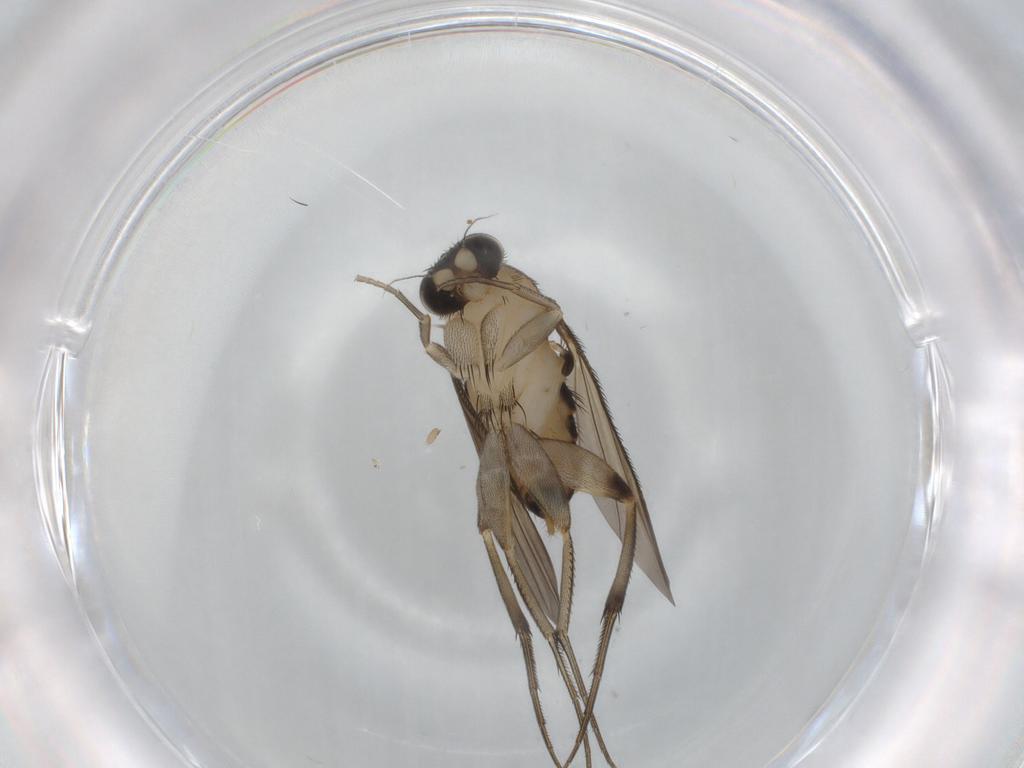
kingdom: Animalia
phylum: Arthropoda
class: Insecta
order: Diptera
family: Phoridae
